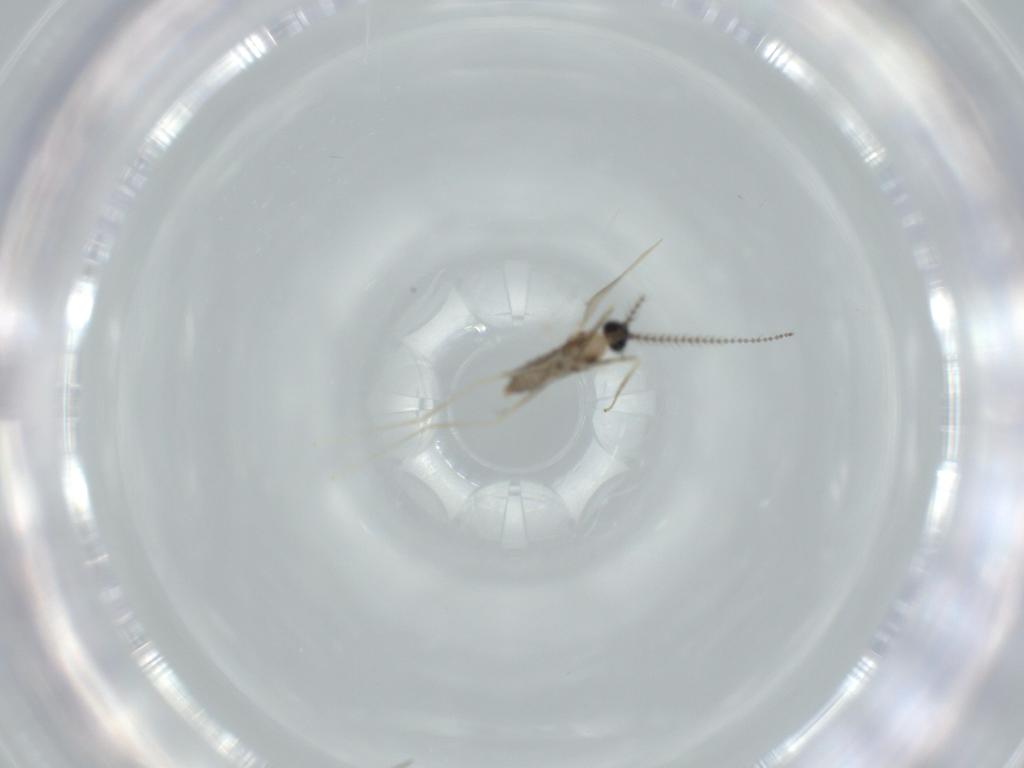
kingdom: Animalia
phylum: Arthropoda
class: Insecta
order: Diptera
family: Cecidomyiidae
